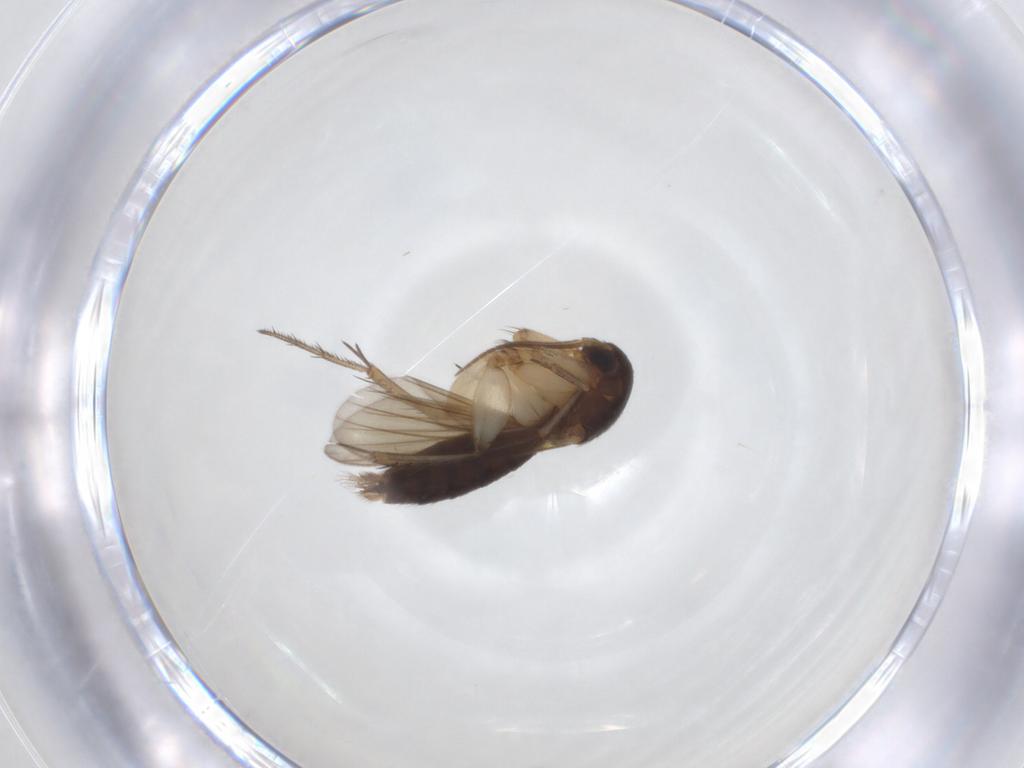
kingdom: Animalia
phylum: Arthropoda
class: Insecta
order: Diptera
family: Mycetophilidae
